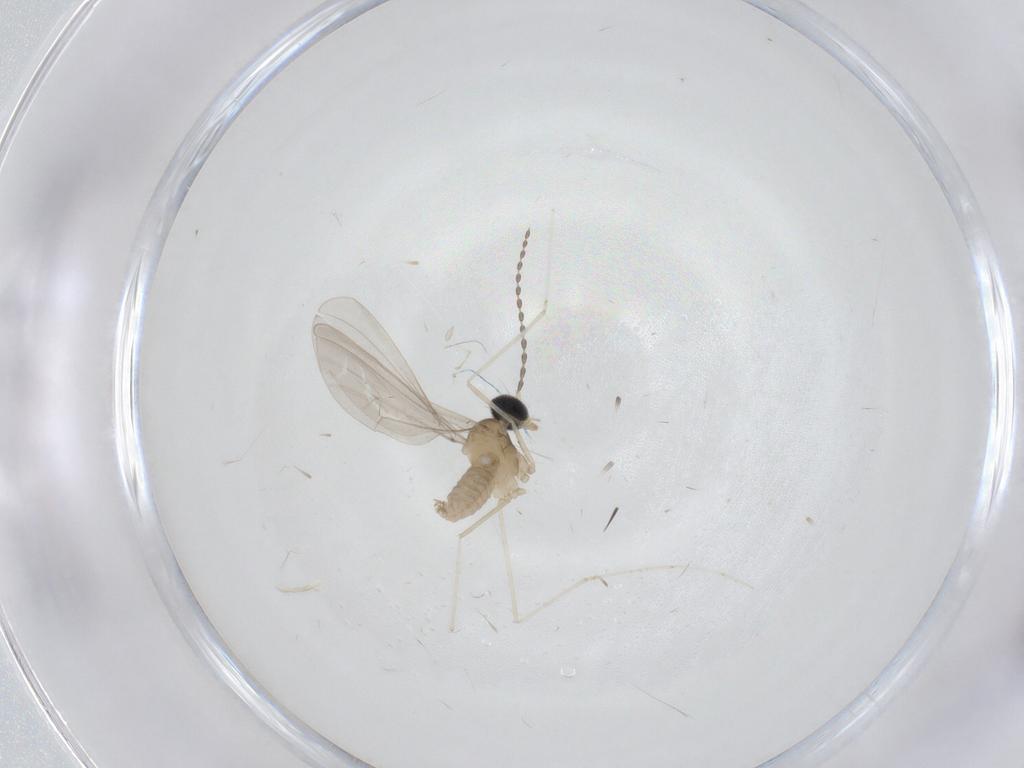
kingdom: Animalia
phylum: Arthropoda
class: Insecta
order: Diptera
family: Cecidomyiidae
